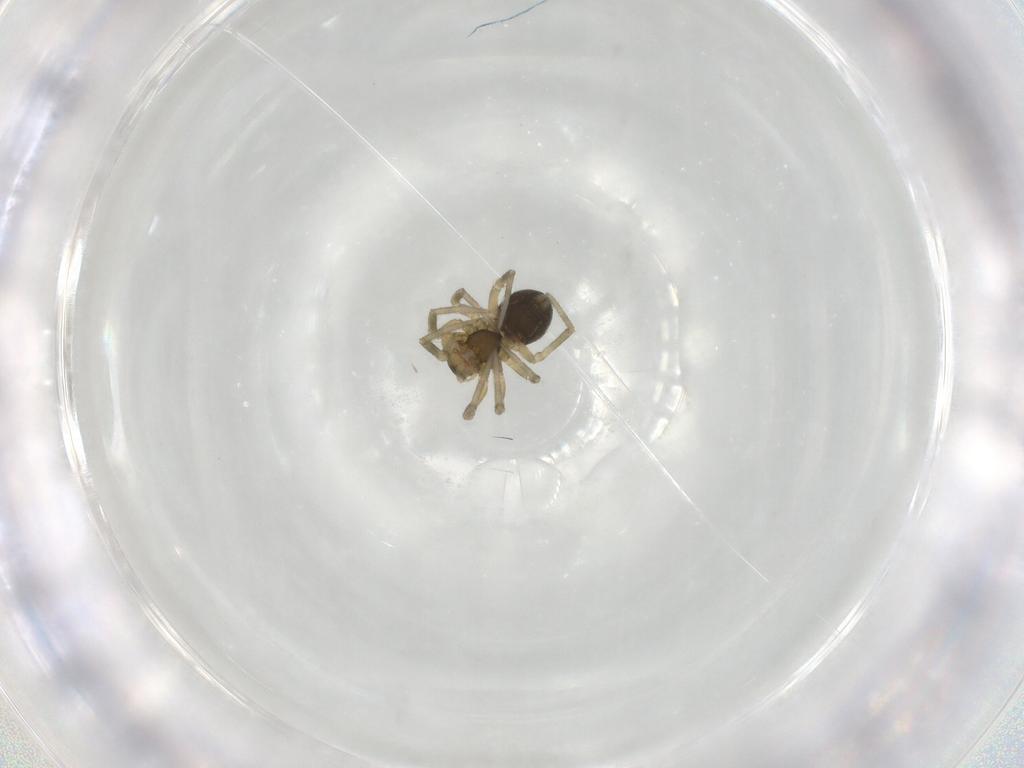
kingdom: Animalia
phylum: Arthropoda
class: Arachnida
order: Araneae
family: Linyphiidae
